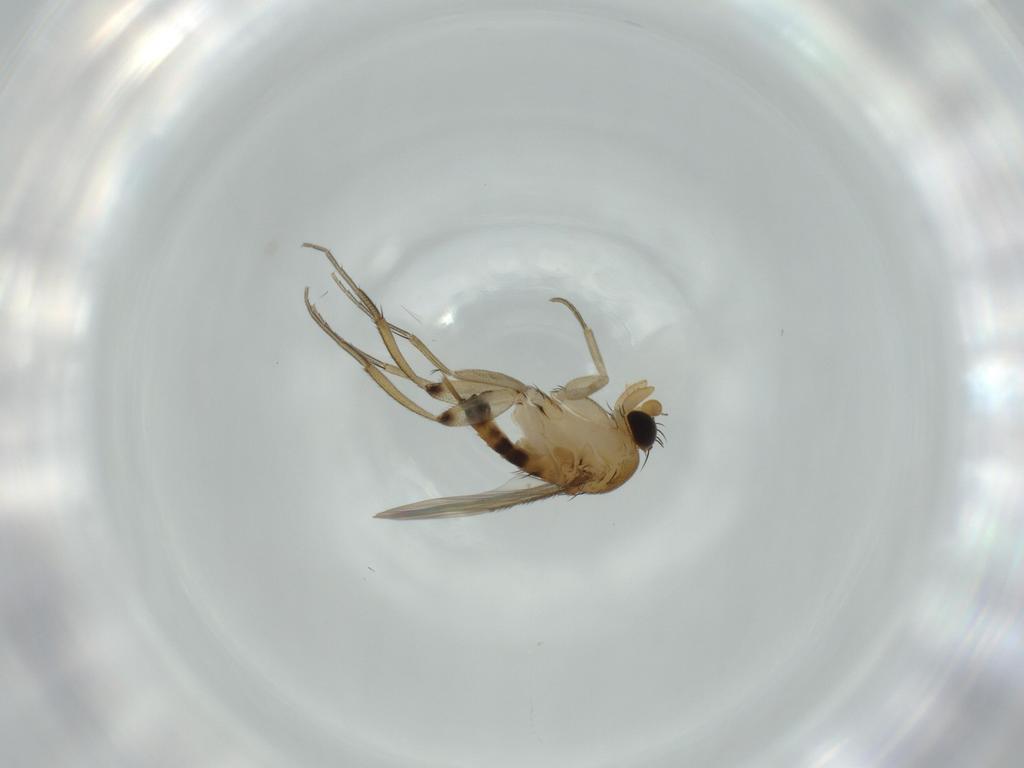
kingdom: Animalia
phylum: Arthropoda
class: Insecta
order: Diptera
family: Phoridae
